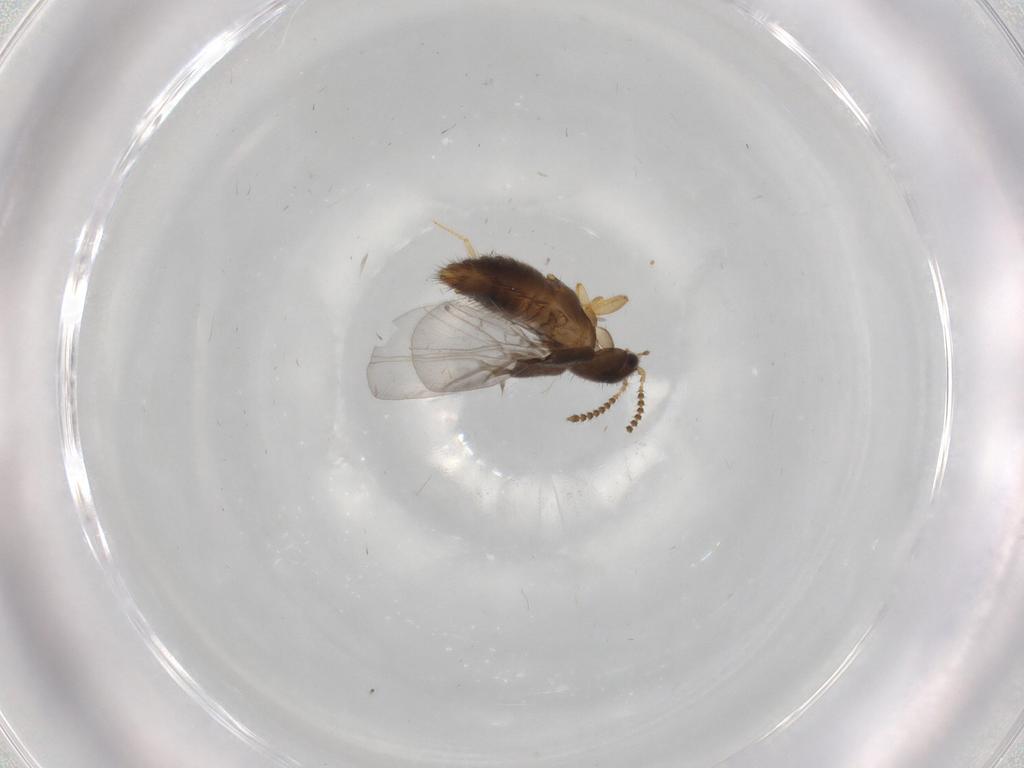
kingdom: Animalia
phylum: Arthropoda
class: Insecta
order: Coleoptera
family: Staphylinidae
